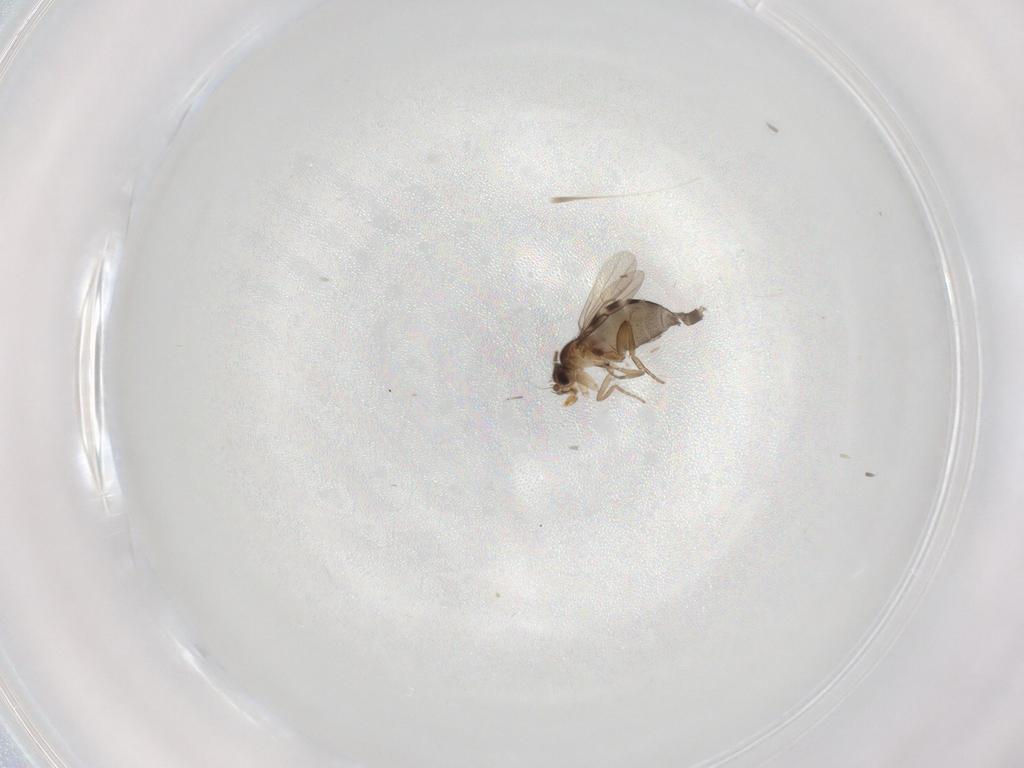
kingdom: Animalia
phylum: Arthropoda
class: Insecta
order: Diptera
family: Phoridae
